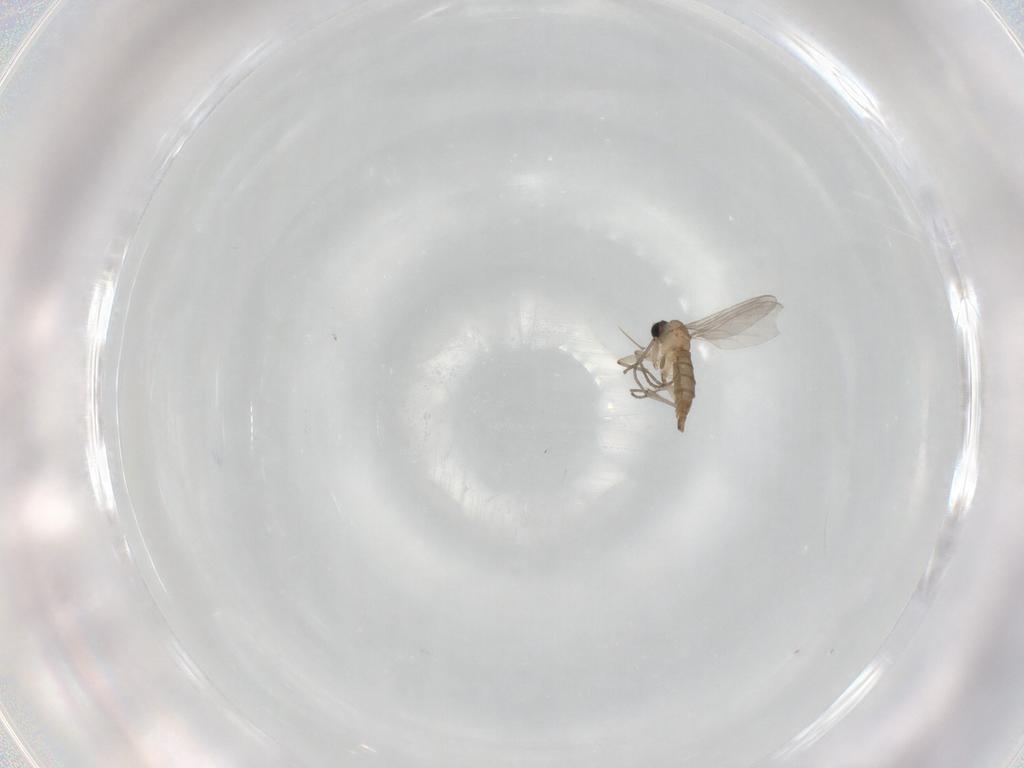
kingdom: Animalia
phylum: Arthropoda
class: Insecta
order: Diptera
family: Sciaridae
